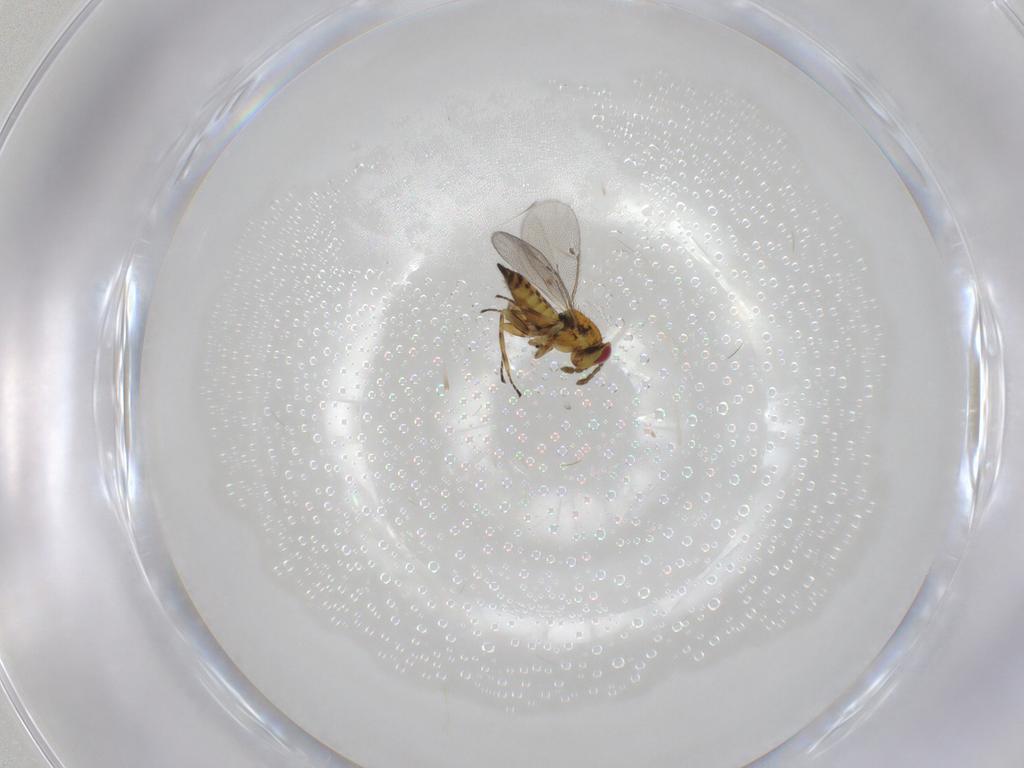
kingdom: Animalia
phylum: Arthropoda
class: Insecta
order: Hymenoptera
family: Eulophidae
